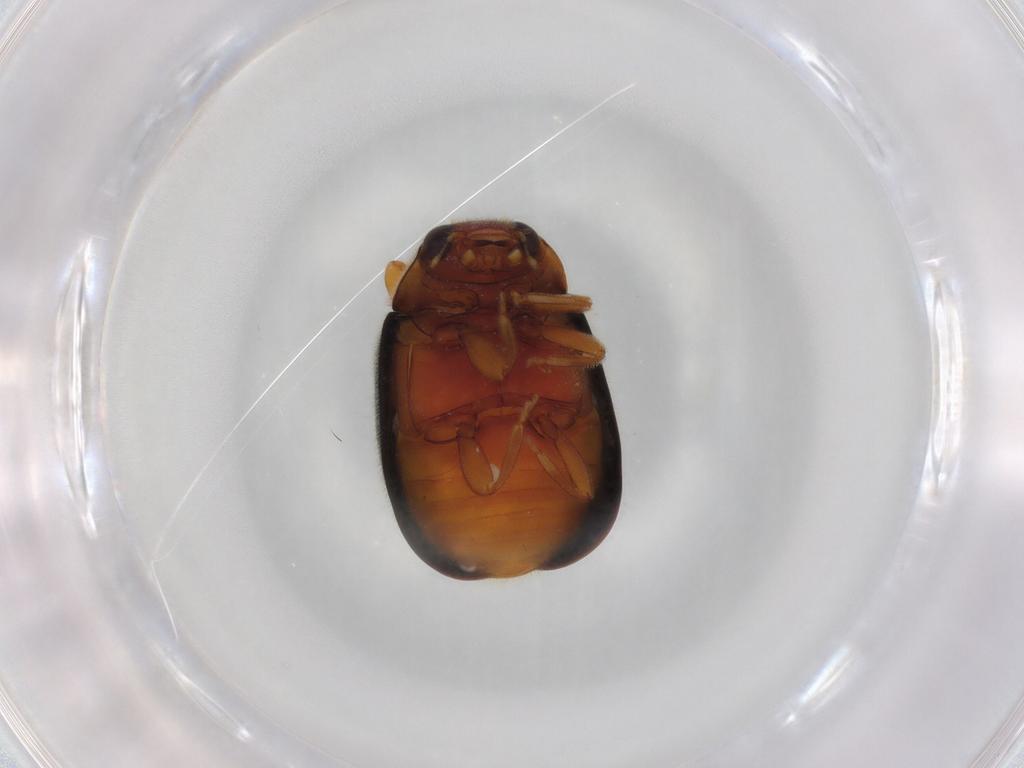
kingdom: Animalia
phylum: Arthropoda
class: Insecta
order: Coleoptera
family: Coccinellidae
